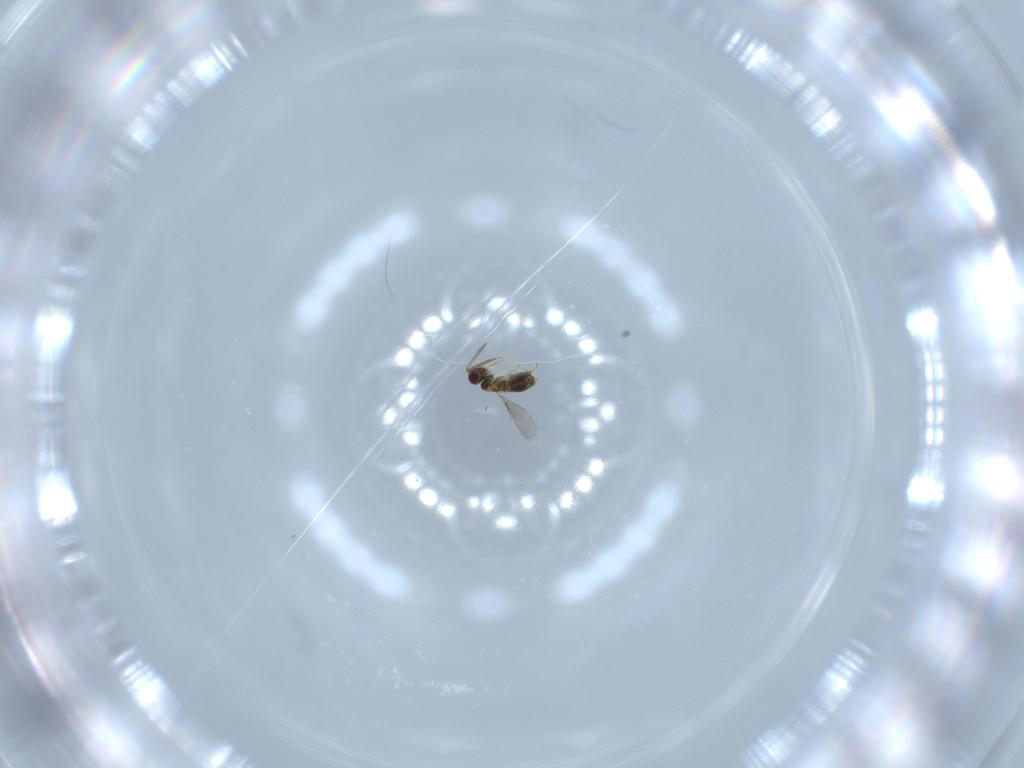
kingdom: Animalia
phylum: Arthropoda
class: Insecta
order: Hymenoptera
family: Aphelinidae
